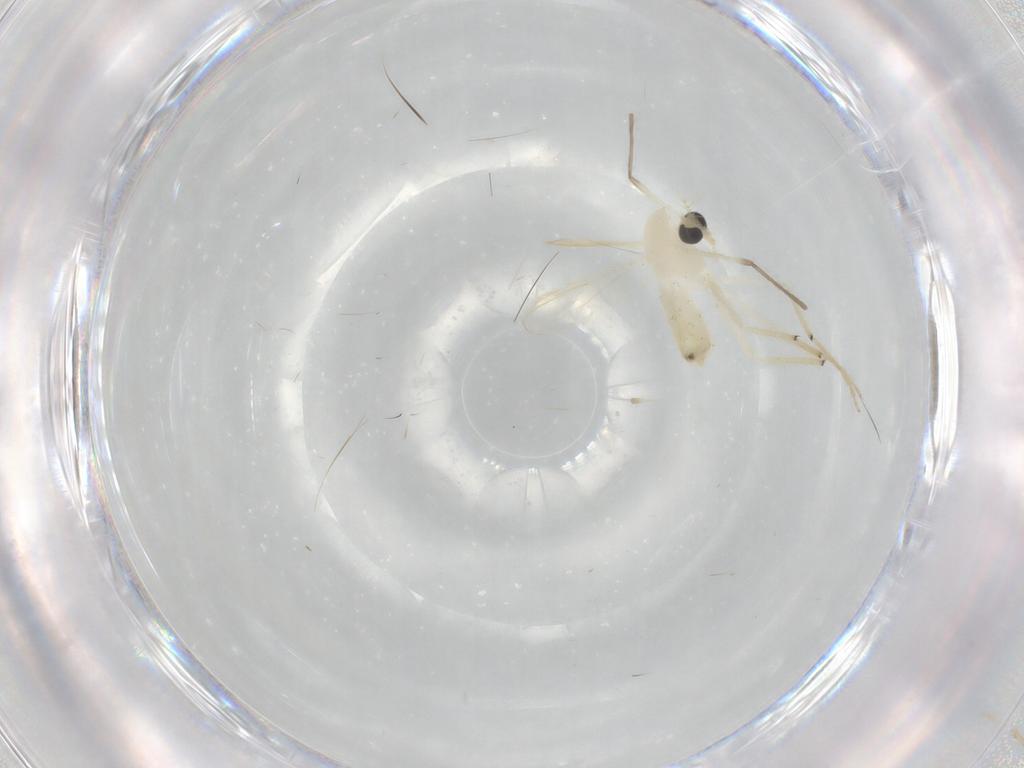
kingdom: Animalia
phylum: Arthropoda
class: Insecta
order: Diptera
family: Chironomidae
